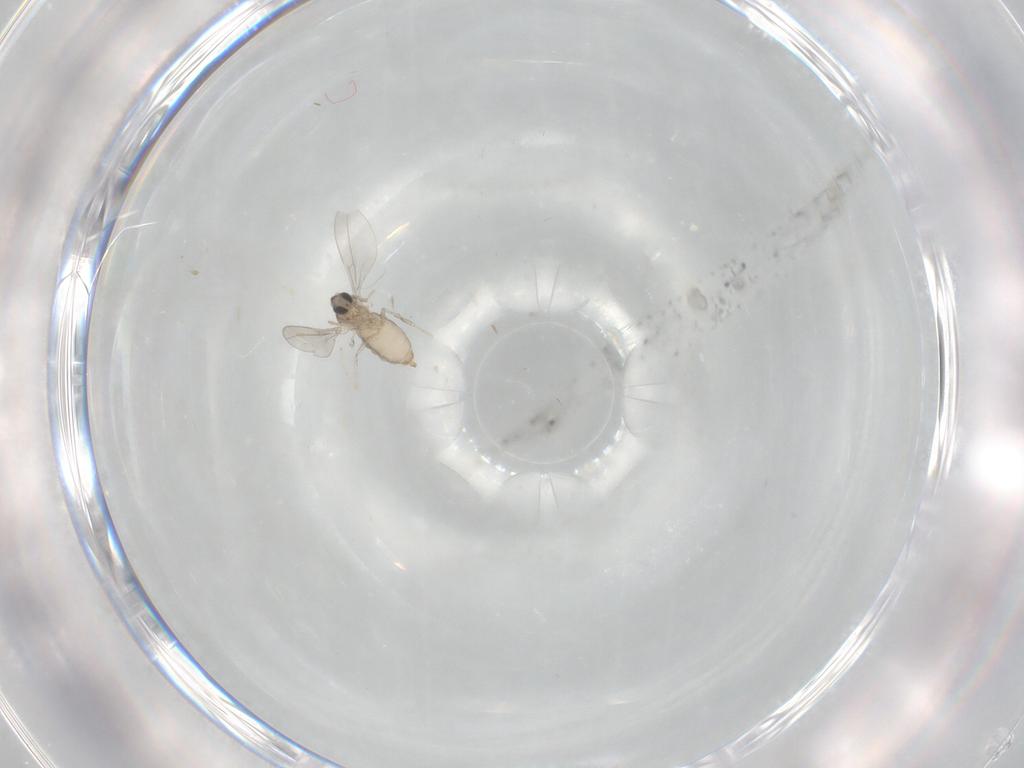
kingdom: Animalia
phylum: Arthropoda
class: Insecta
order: Diptera
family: Cecidomyiidae
